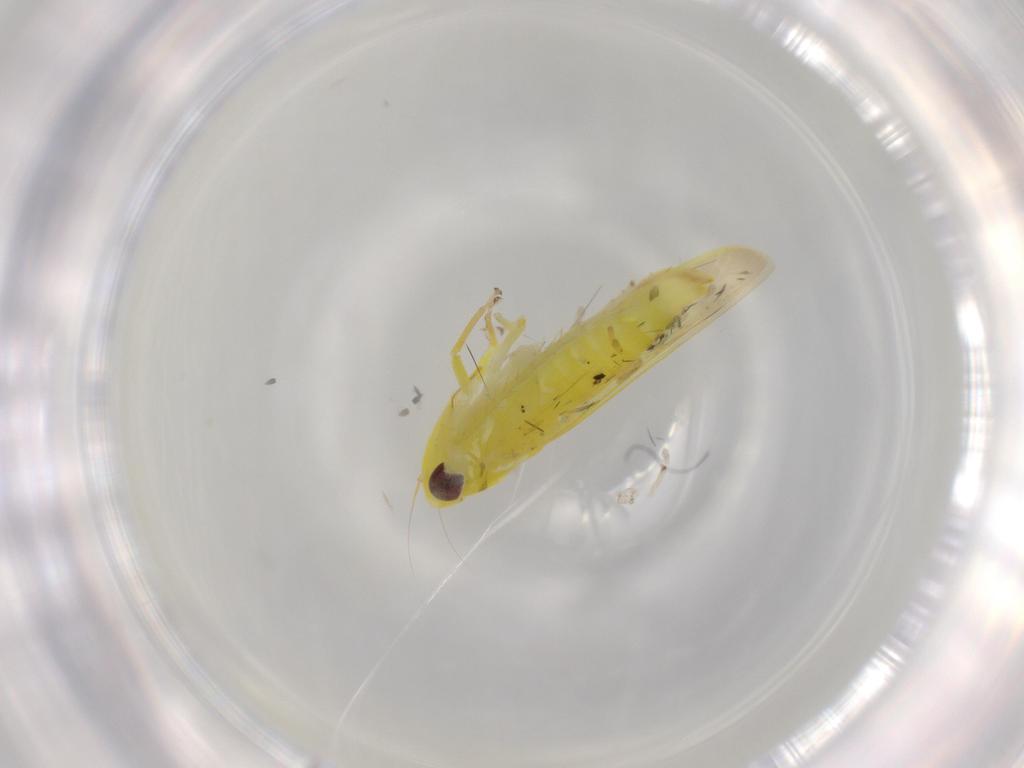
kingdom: Animalia
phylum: Arthropoda
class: Insecta
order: Hemiptera
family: Cicadellidae
